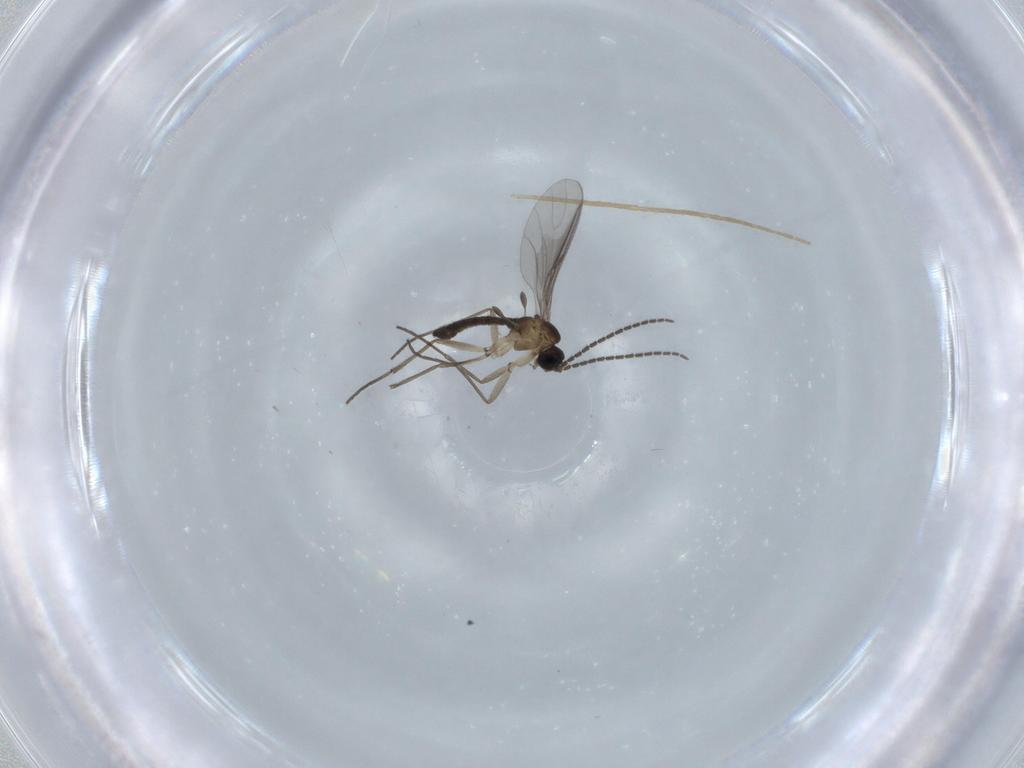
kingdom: Animalia
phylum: Arthropoda
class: Insecta
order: Diptera
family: Sciaridae
